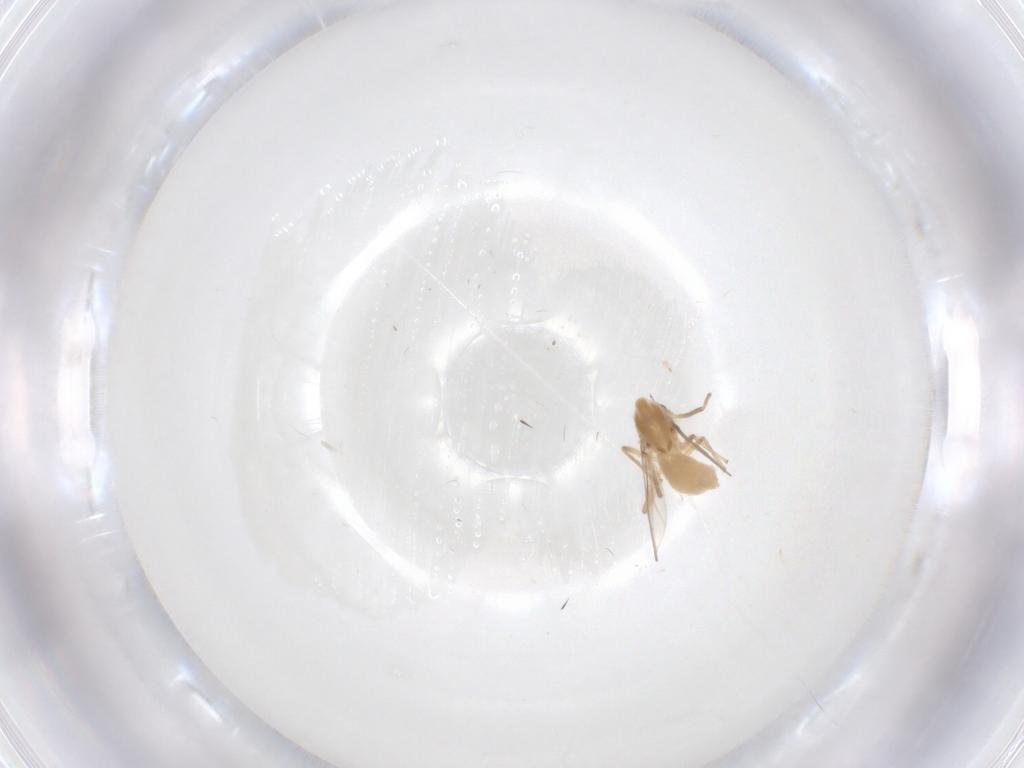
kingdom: Animalia
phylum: Arthropoda
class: Insecta
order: Diptera
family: Chironomidae
